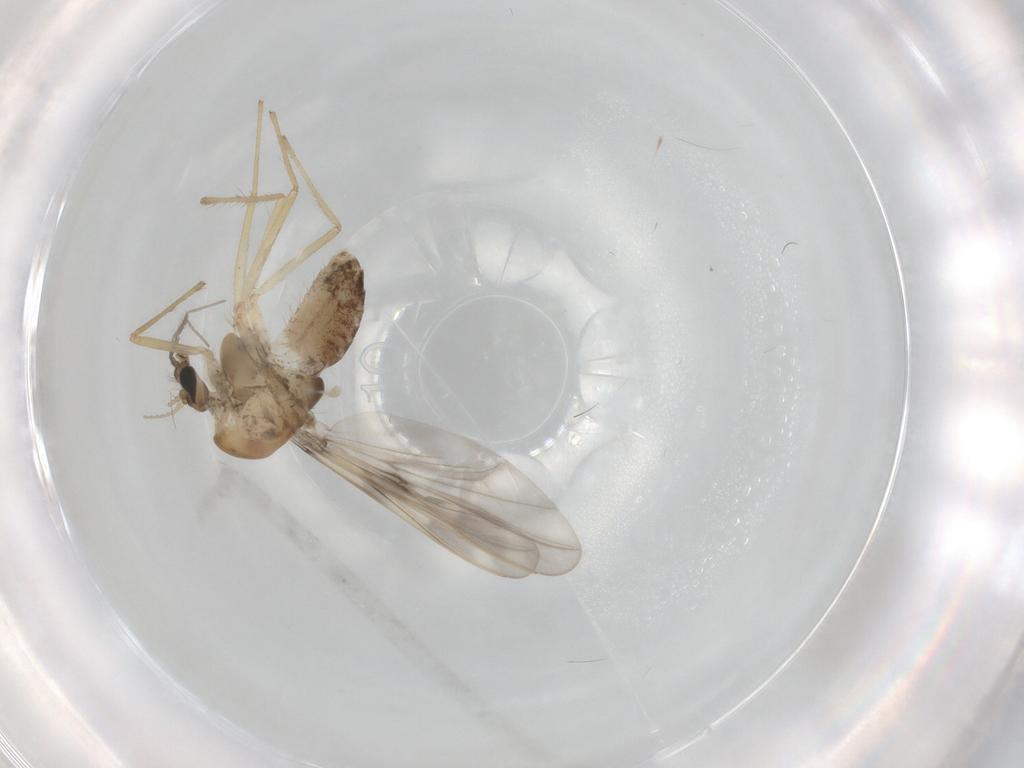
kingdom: Animalia
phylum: Arthropoda
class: Insecta
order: Diptera
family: Chironomidae
